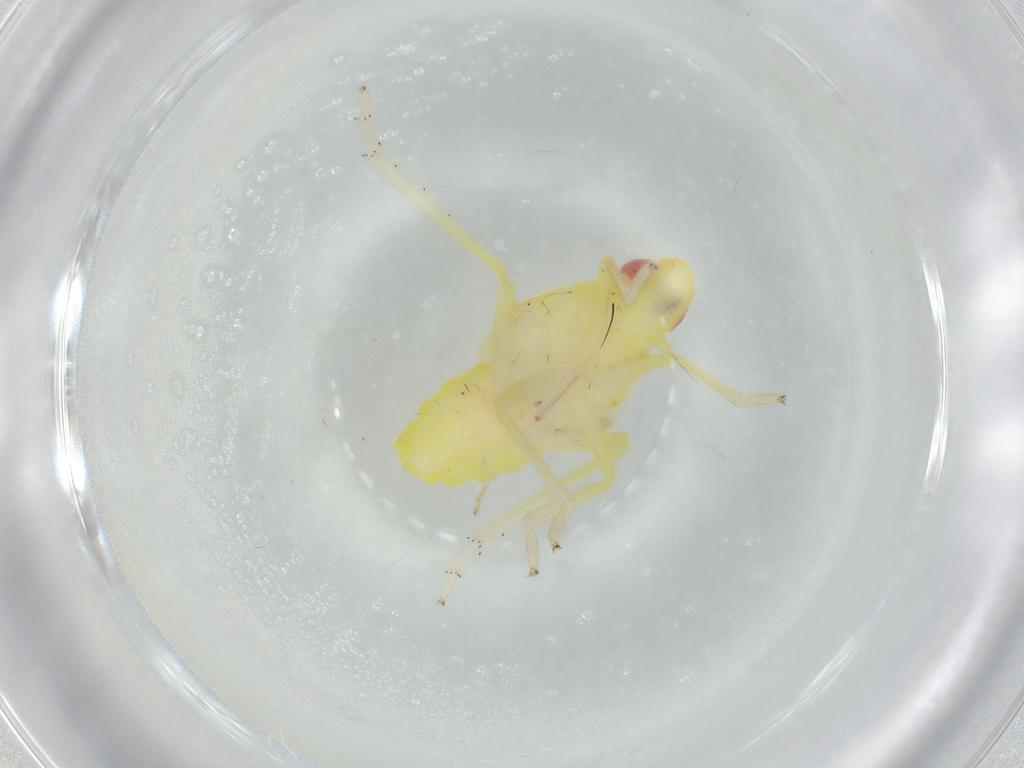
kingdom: Animalia
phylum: Arthropoda
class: Insecta
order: Hemiptera
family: Tropiduchidae
